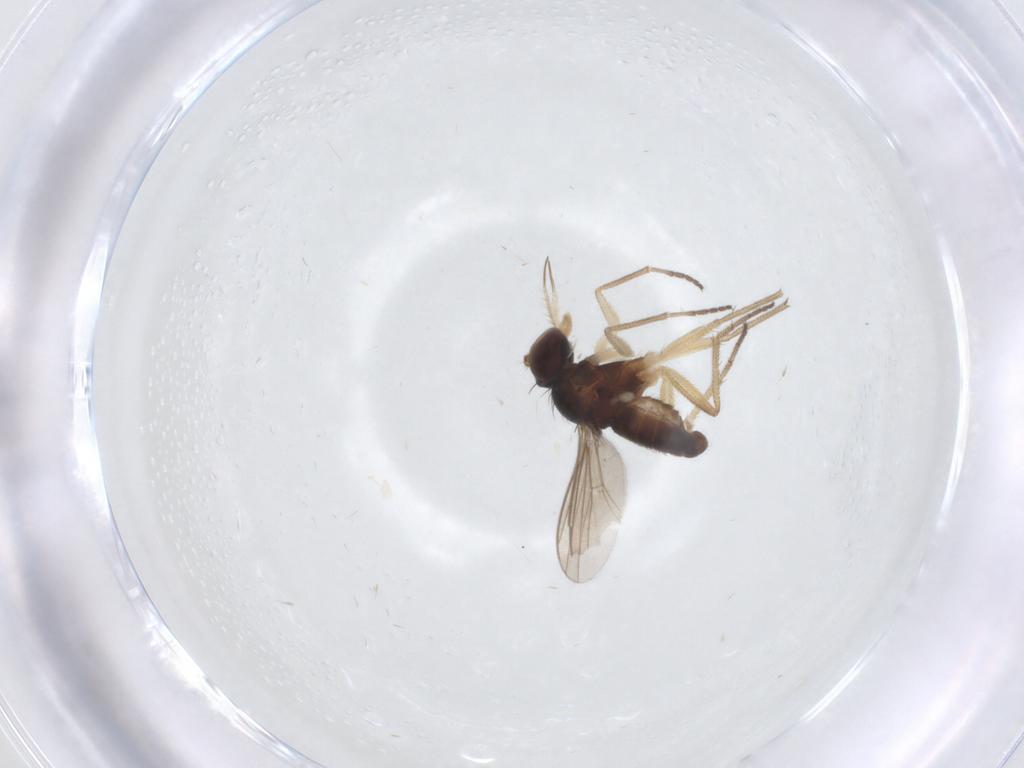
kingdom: Animalia
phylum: Arthropoda
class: Insecta
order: Diptera
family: Dolichopodidae
